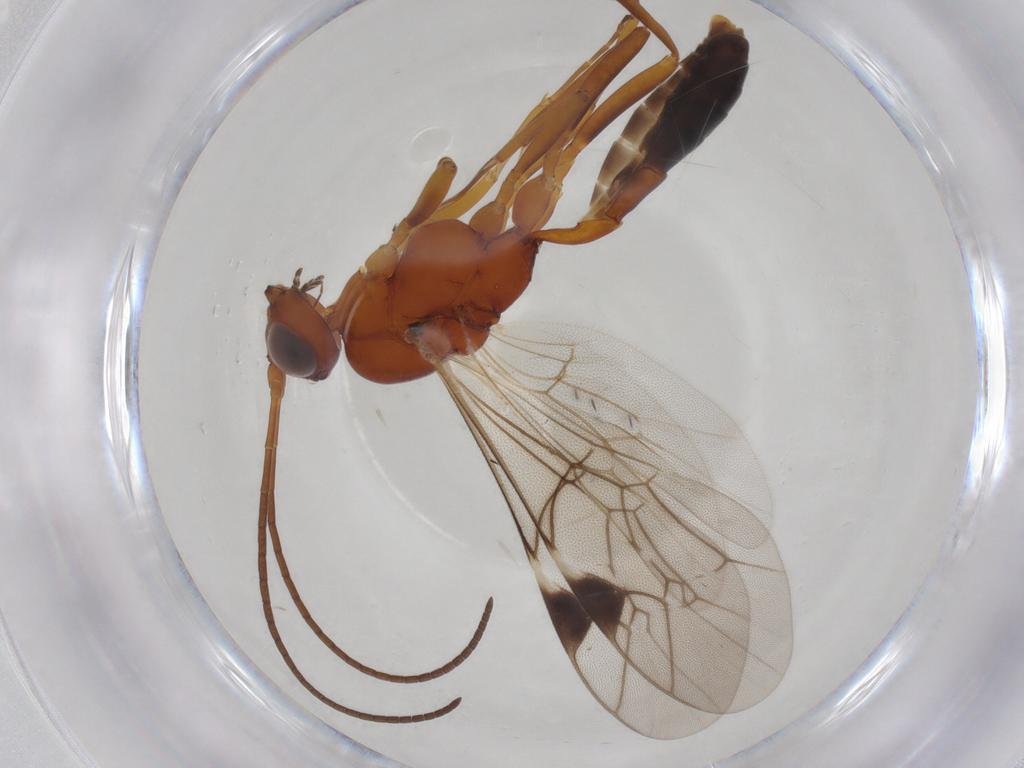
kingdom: Animalia
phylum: Arthropoda
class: Insecta
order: Hymenoptera
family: Ichneumonidae
